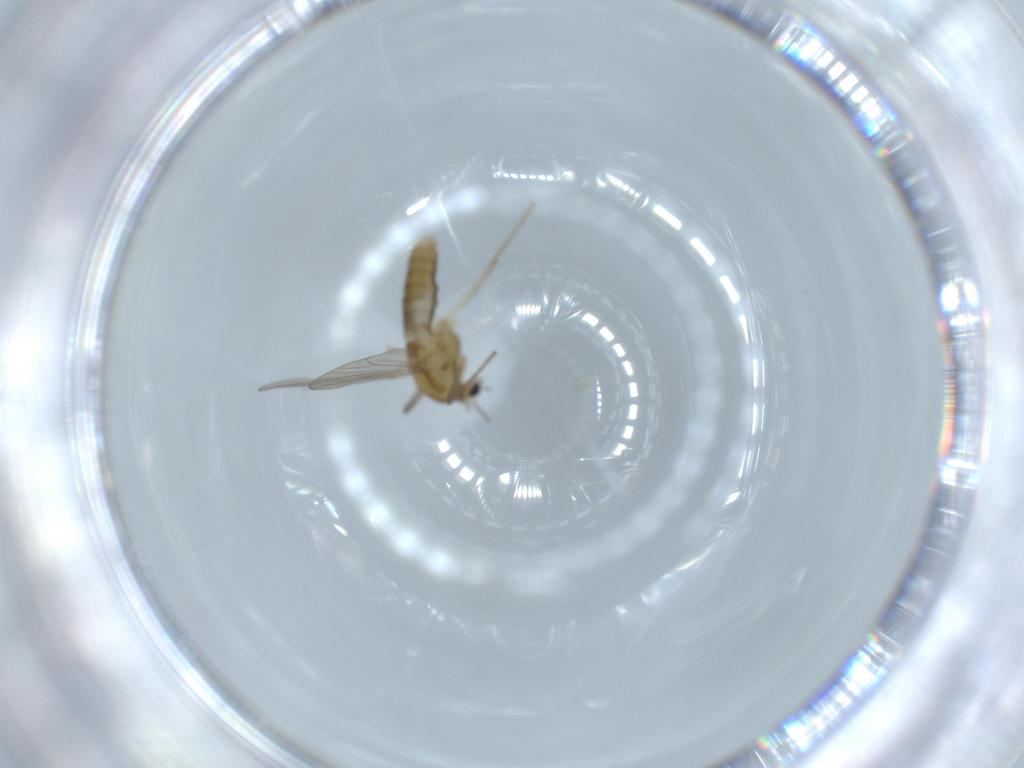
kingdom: Animalia
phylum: Arthropoda
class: Insecta
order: Diptera
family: Chironomidae
